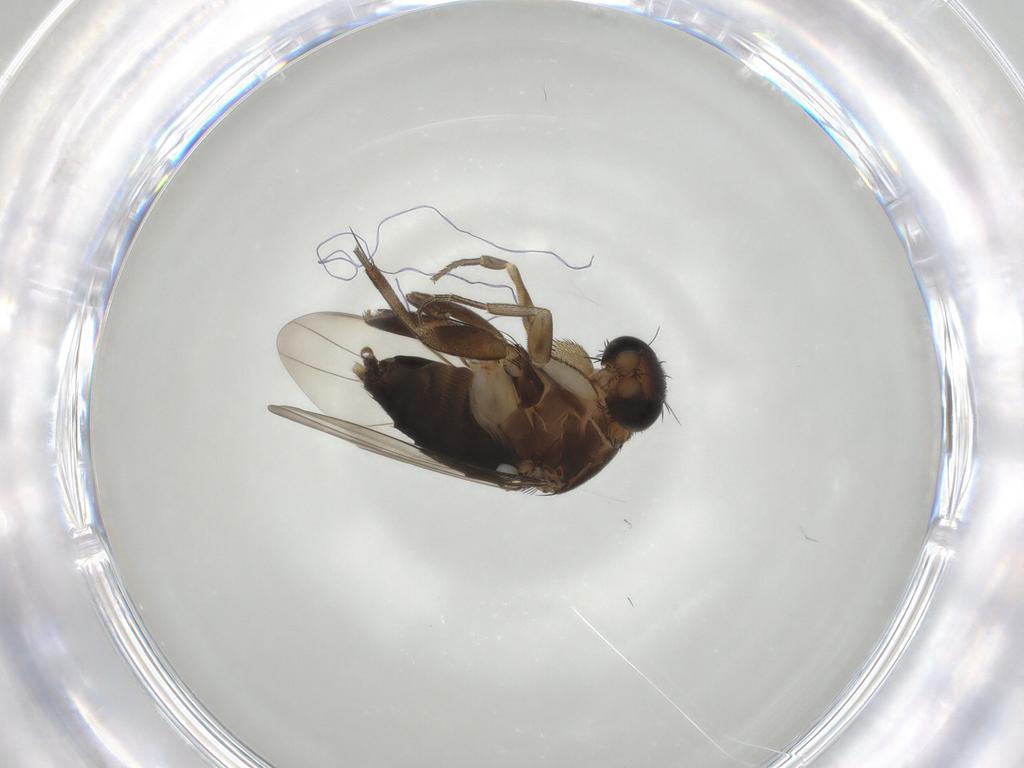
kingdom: Animalia
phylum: Arthropoda
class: Insecta
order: Diptera
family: Phoridae
